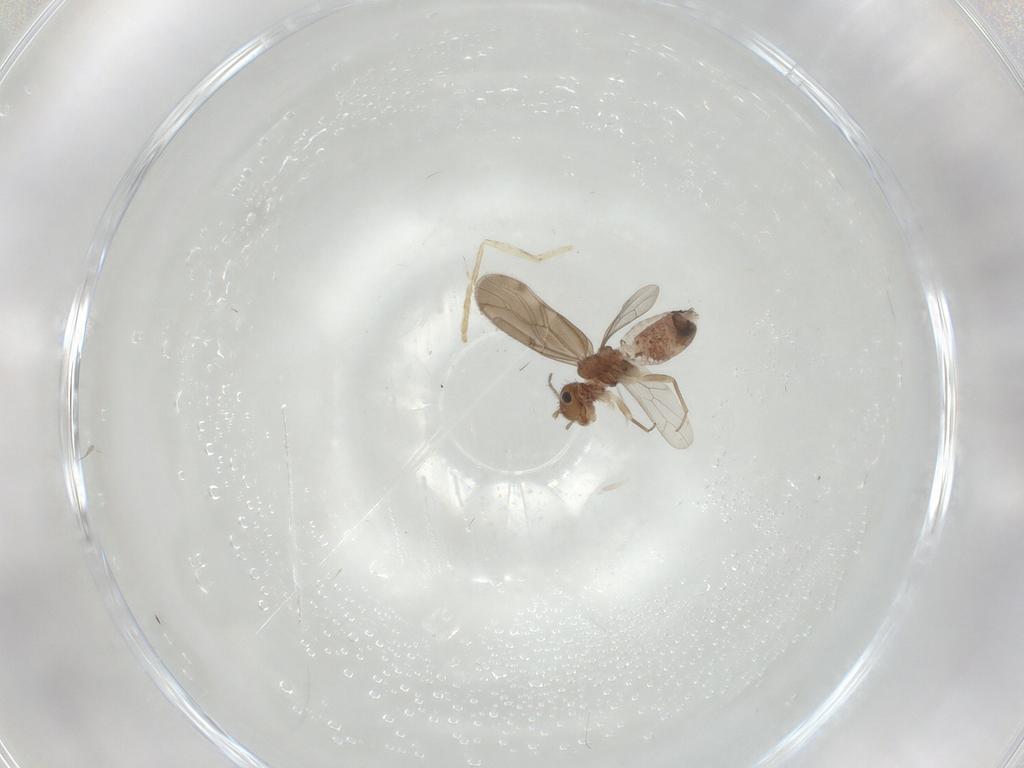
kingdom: Animalia
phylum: Arthropoda
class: Insecta
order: Psocodea
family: Ectopsocidae
